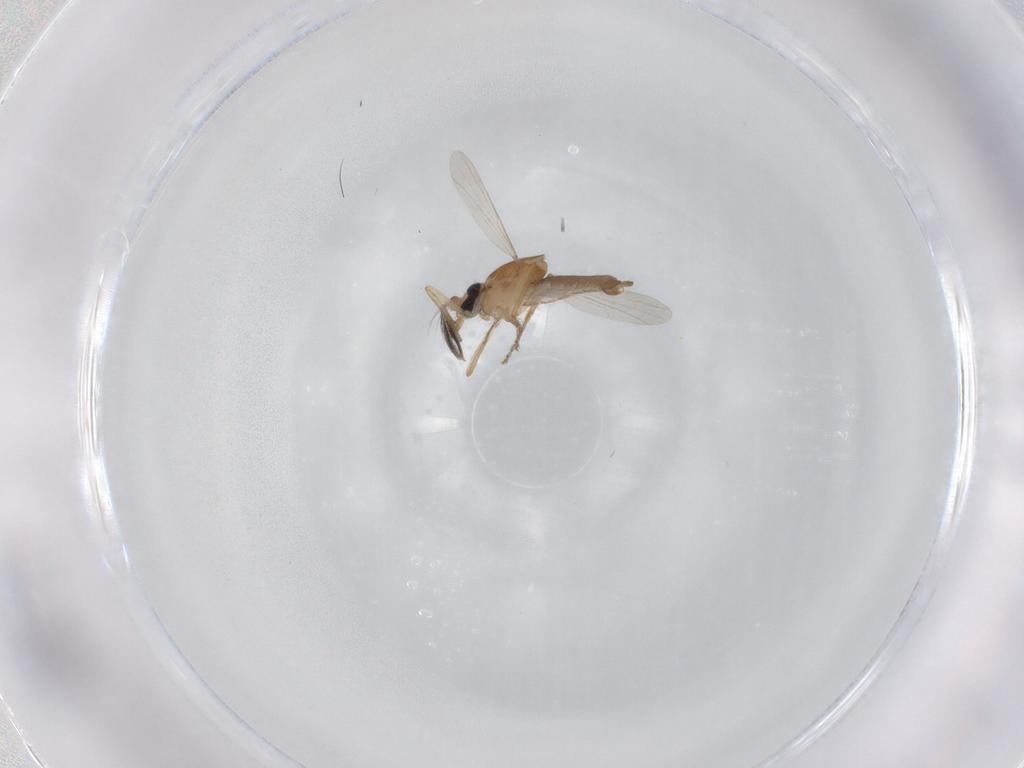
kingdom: Animalia
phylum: Arthropoda
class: Insecta
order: Diptera
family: Ceratopogonidae
